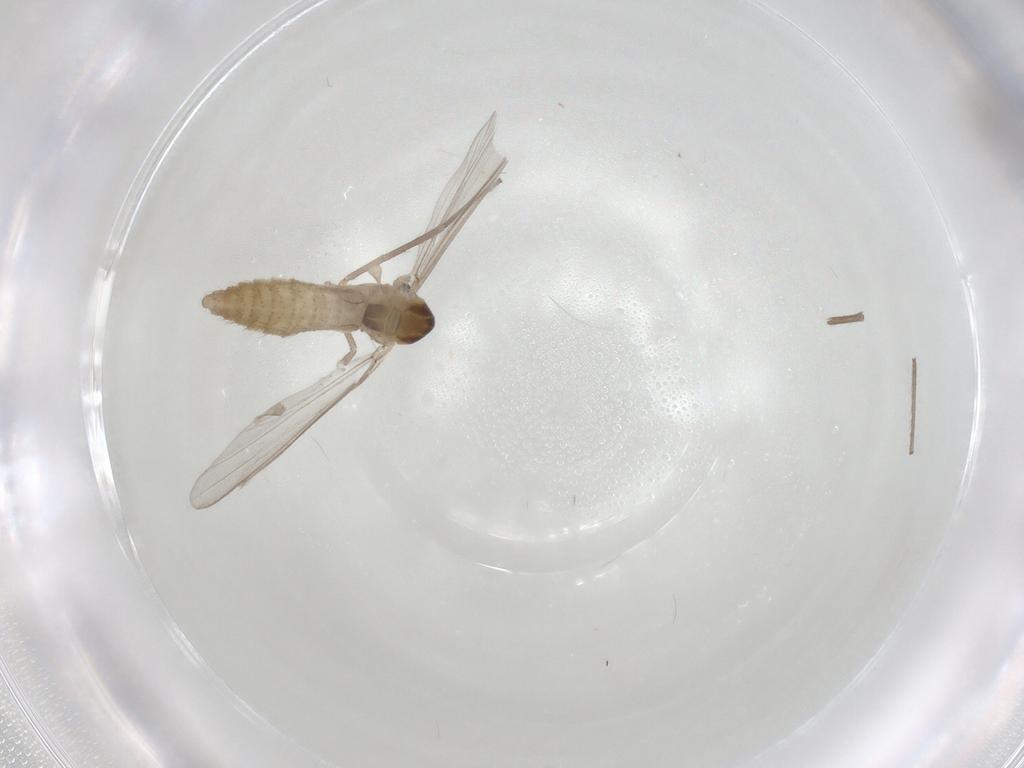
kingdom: Animalia
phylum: Arthropoda
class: Insecta
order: Diptera
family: Chironomidae
